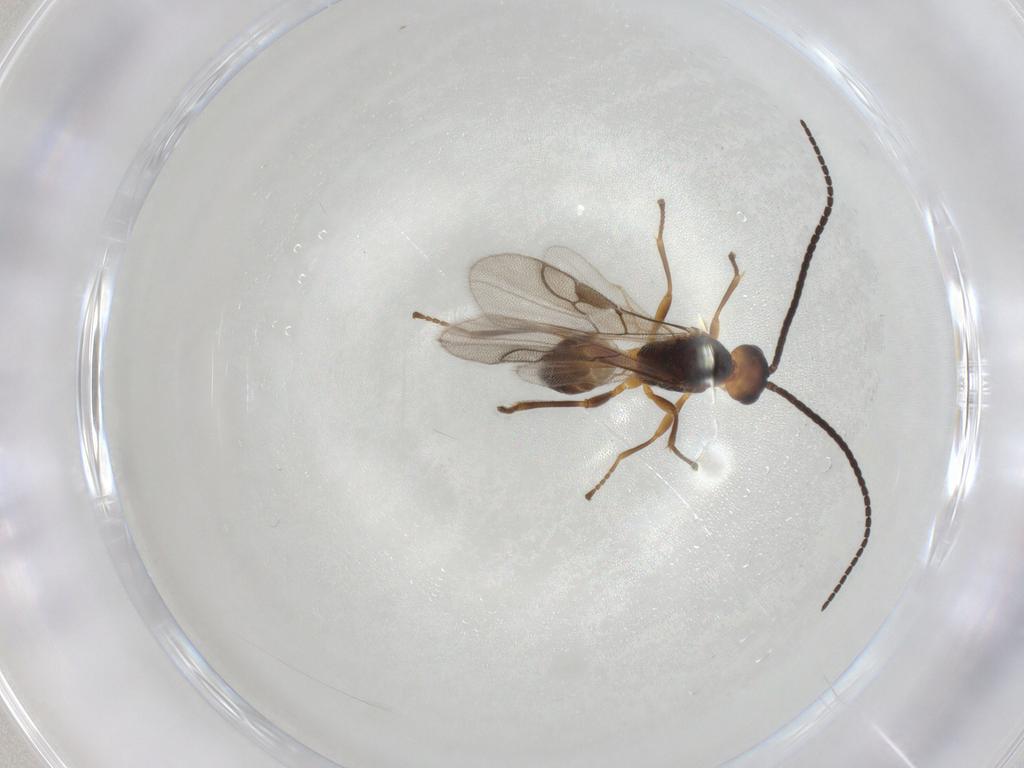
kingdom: Animalia
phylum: Arthropoda
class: Insecta
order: Hymenoptera
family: Braconidae
